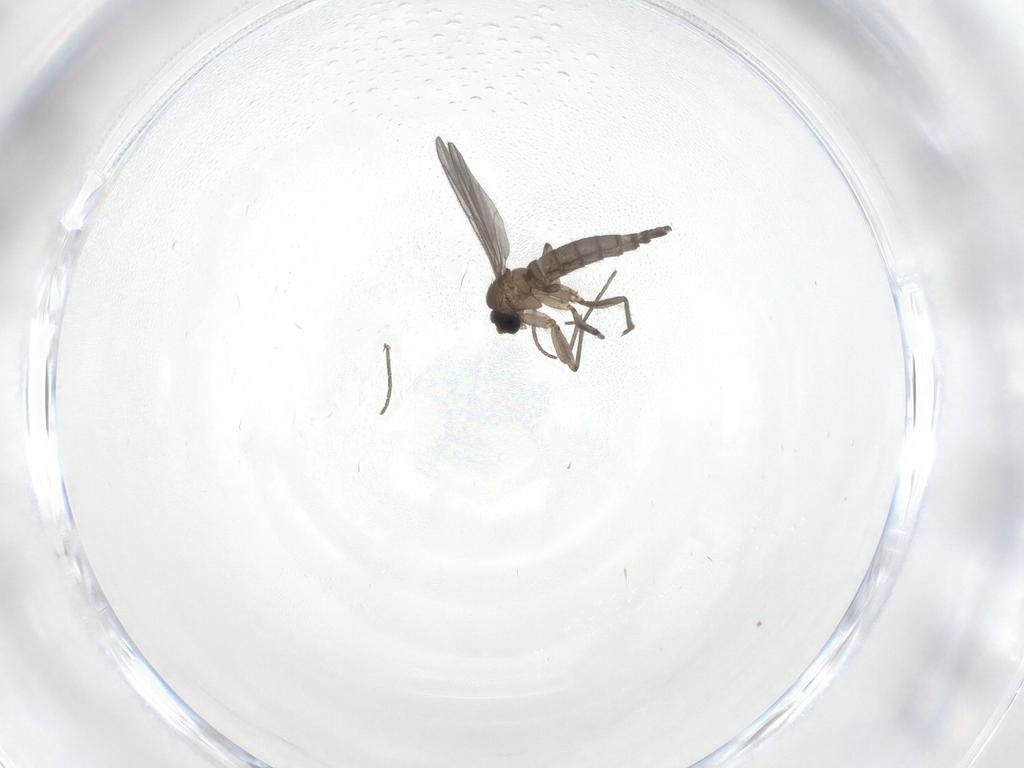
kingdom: Animalia
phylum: Arthropoda
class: Insecta
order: Diptera
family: Sciaridae
